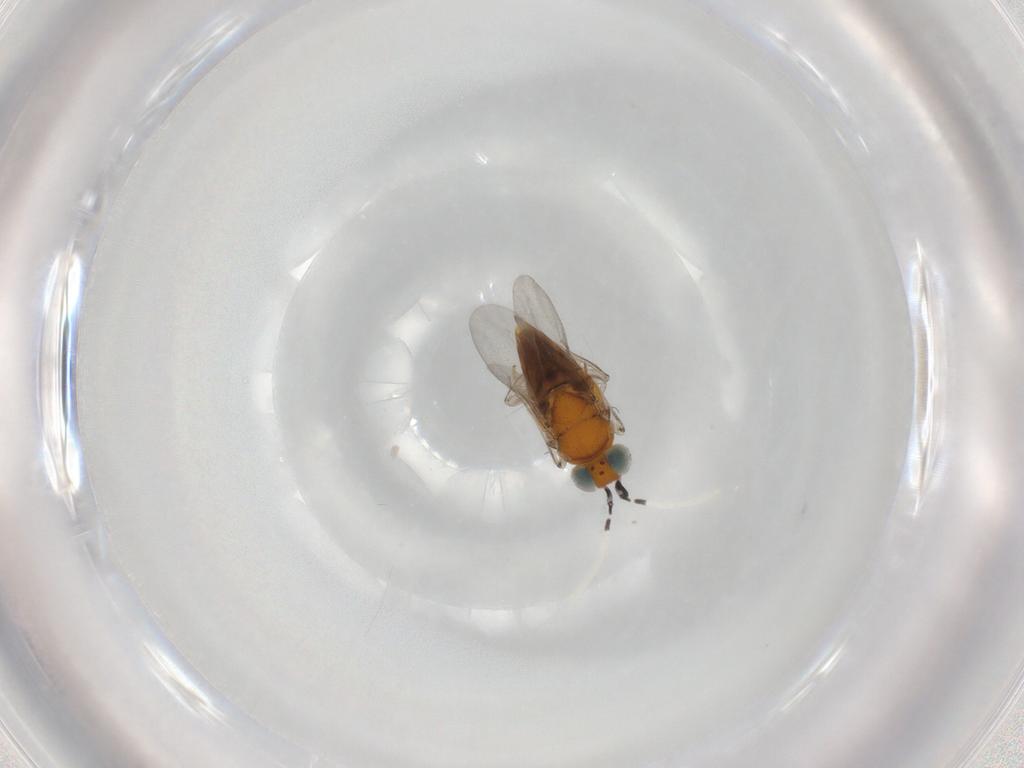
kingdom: Animalia
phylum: Arthropoda
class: Insecta
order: Hymenoptera
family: Encyrtidae
